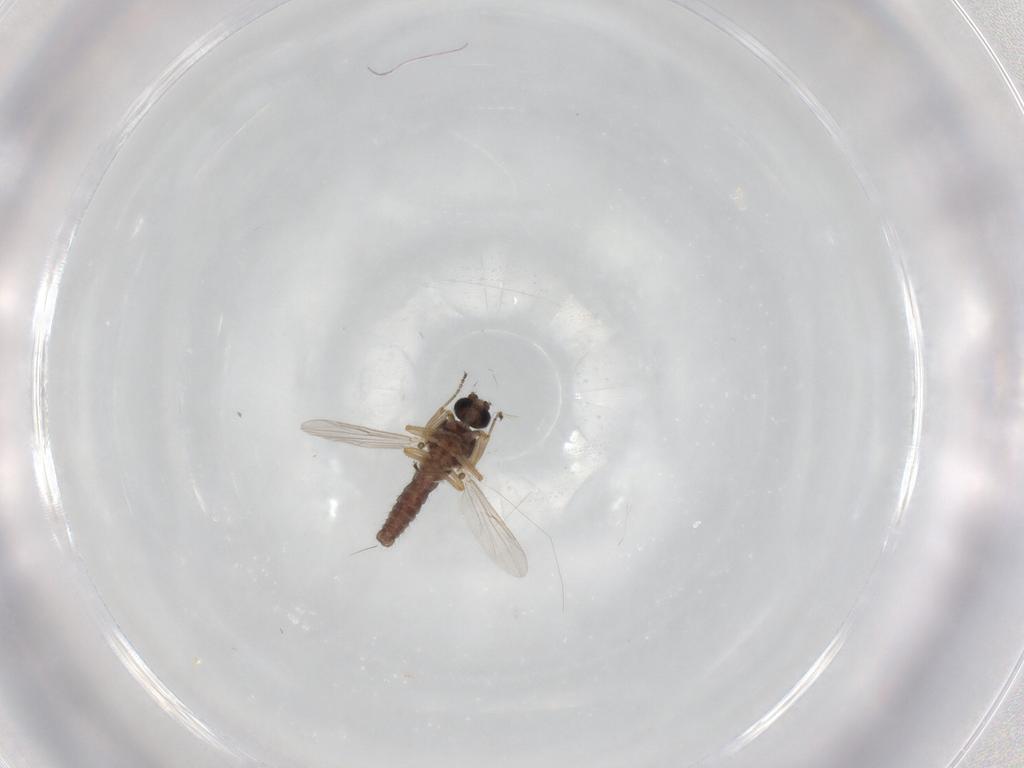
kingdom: Animalia
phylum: Arthropoda
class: Insecta
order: Diptera
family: Ceratopogonidae
